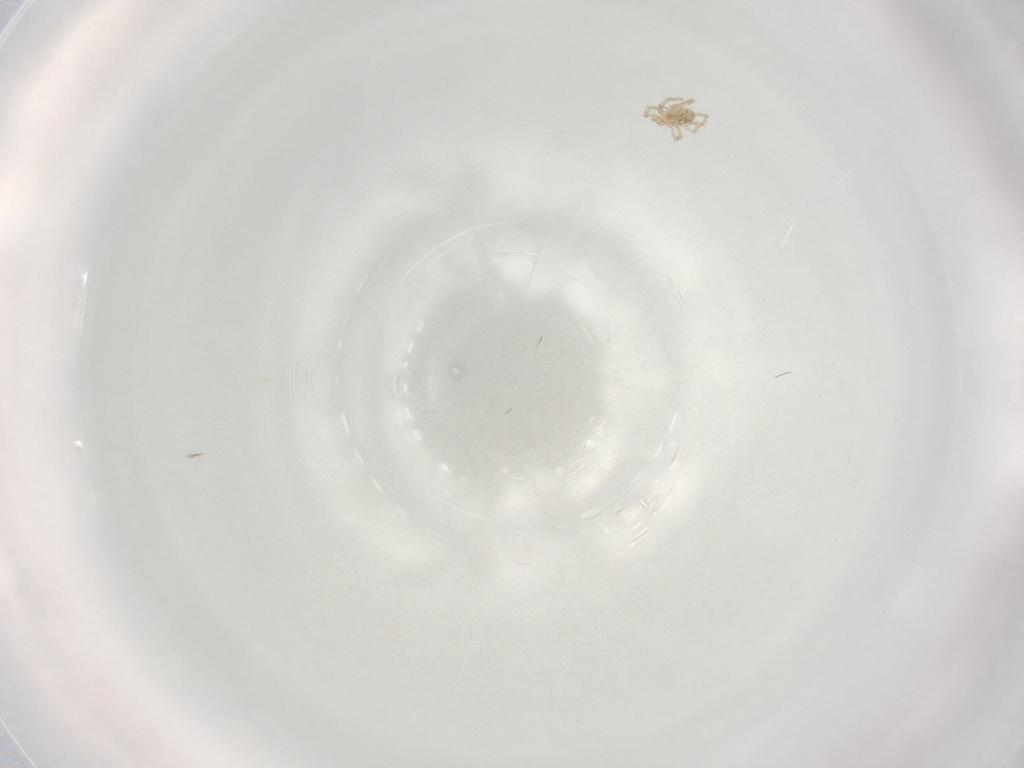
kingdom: Animalia
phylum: Arthropoda
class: Arachnida
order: Trombidiformes
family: Erythraeidae
